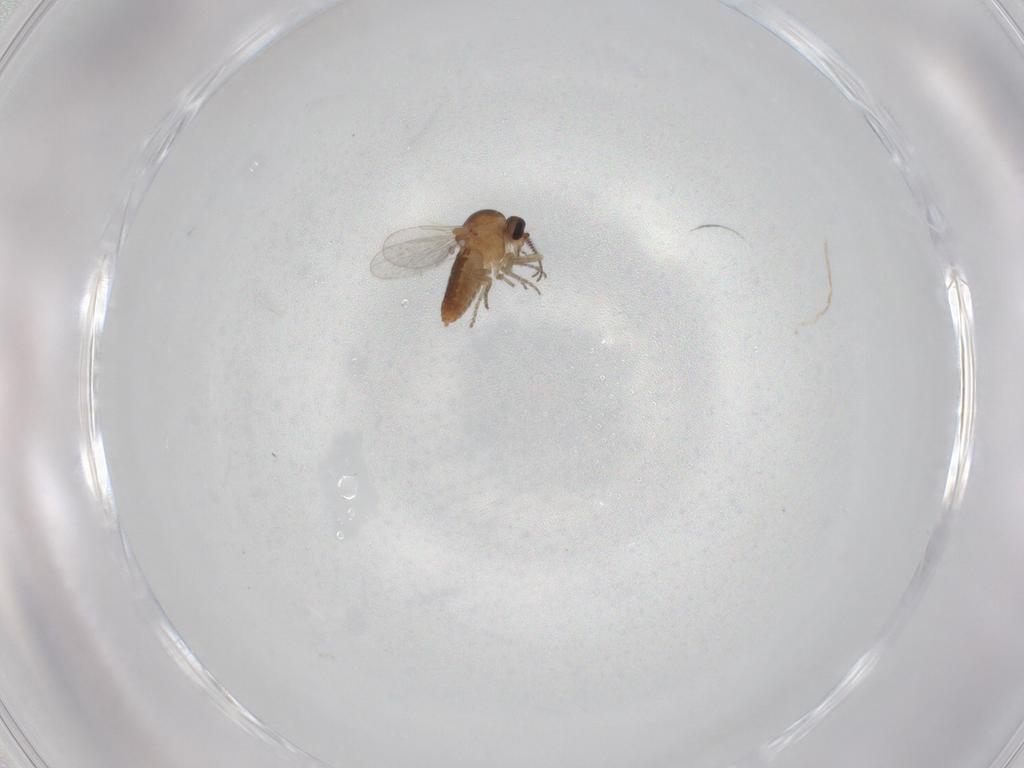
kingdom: Animalia
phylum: Arthropoda
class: Insecta
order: Diptera
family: Ceratopogonidae
